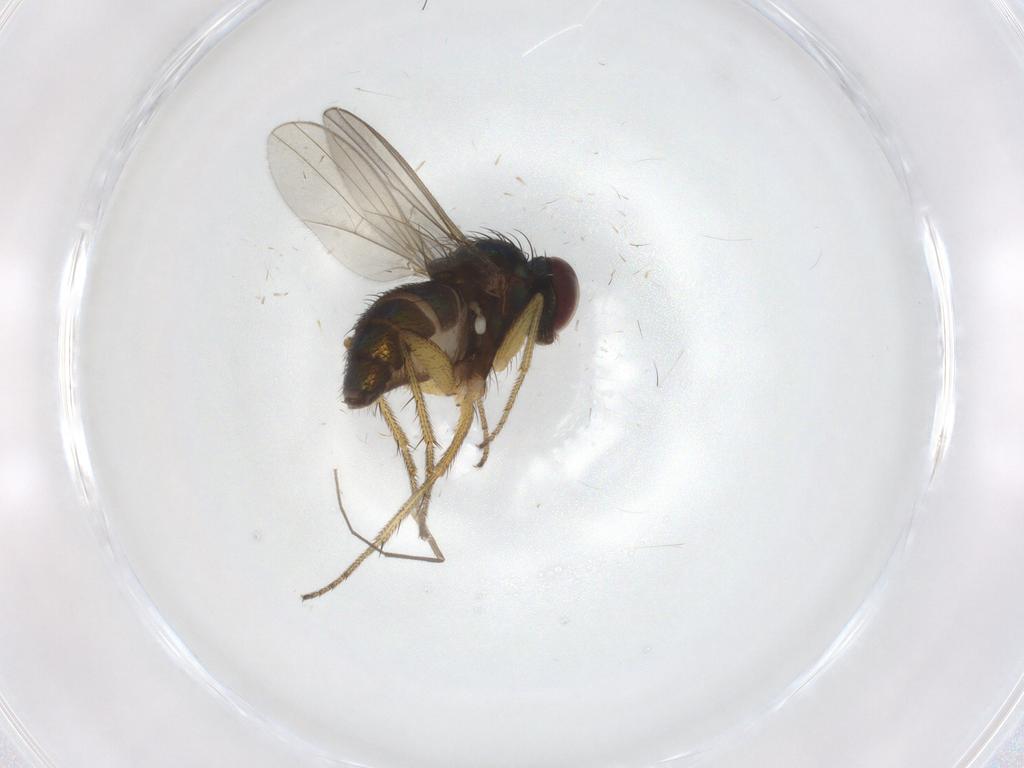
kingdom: Animalia
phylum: Arthropoda
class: Insecta
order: Diptera
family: Chironomidae
